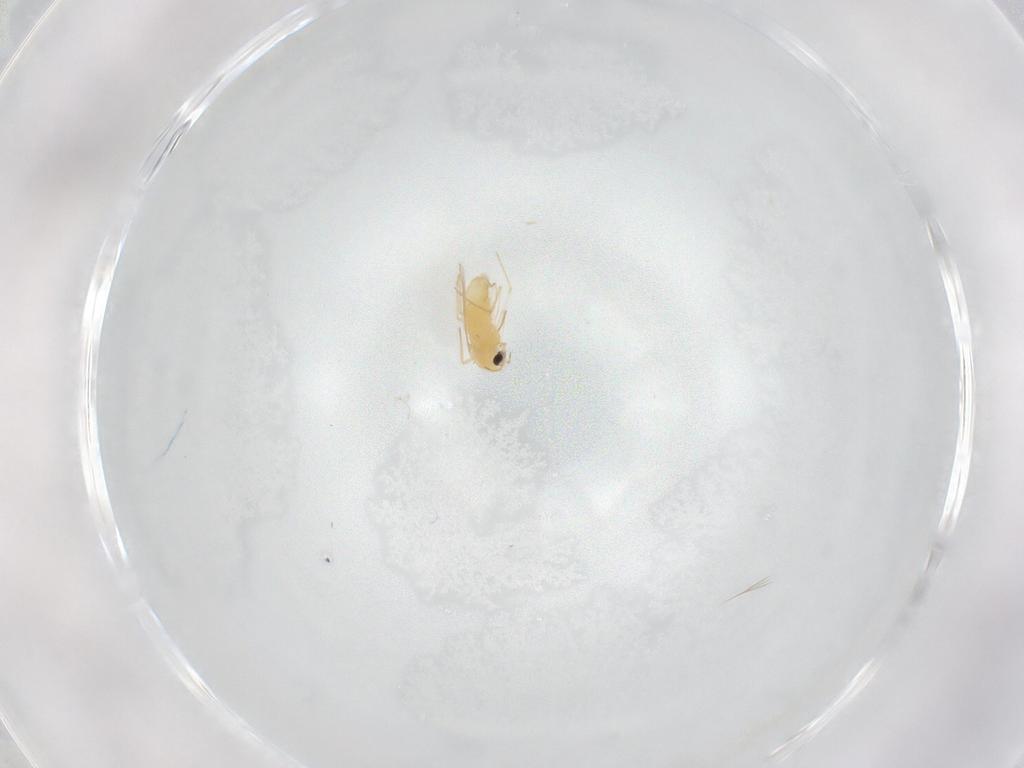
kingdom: Animalia
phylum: Arthropoda
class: Insecta
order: Diptera
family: Chironomidae
